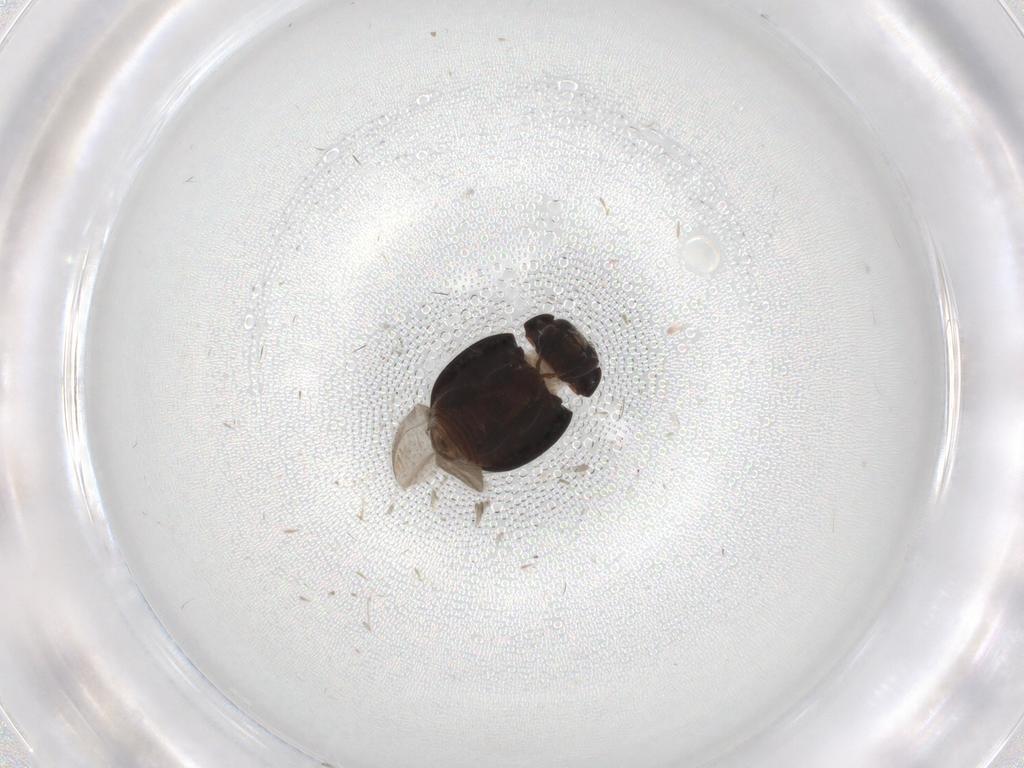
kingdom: Animalia
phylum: Arthropoda
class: Insecta
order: Coleoptera
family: Coccinellidae
